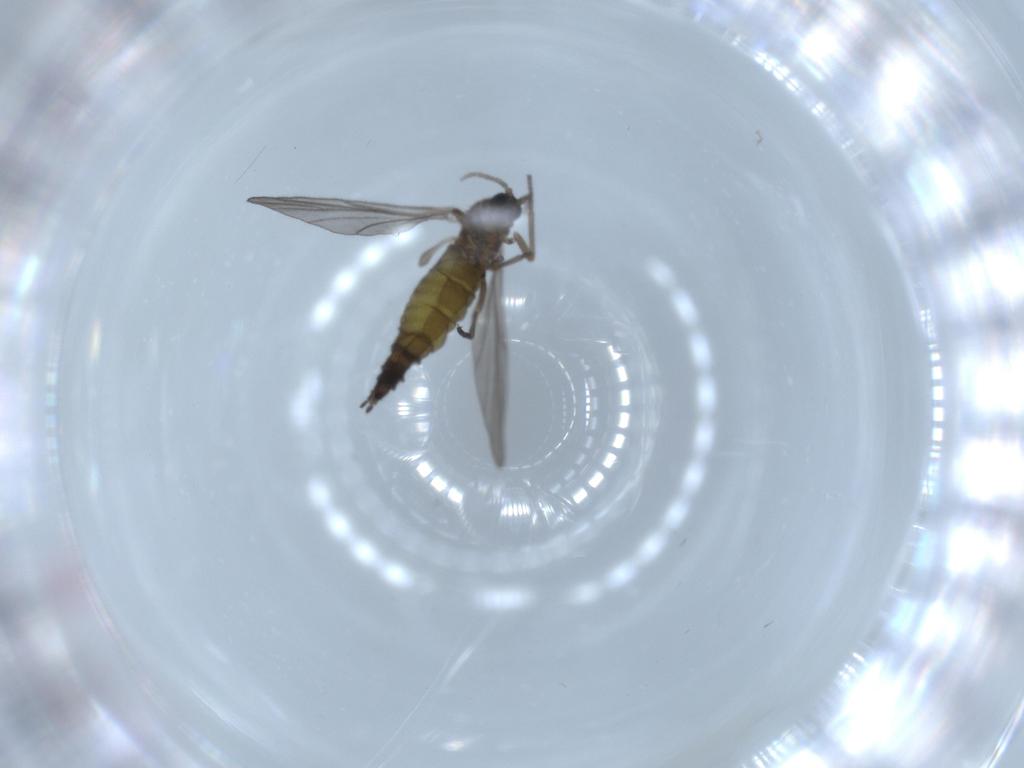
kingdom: Animalia
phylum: Arthropoda
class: Insecta
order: Diptera
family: Sciaridae
